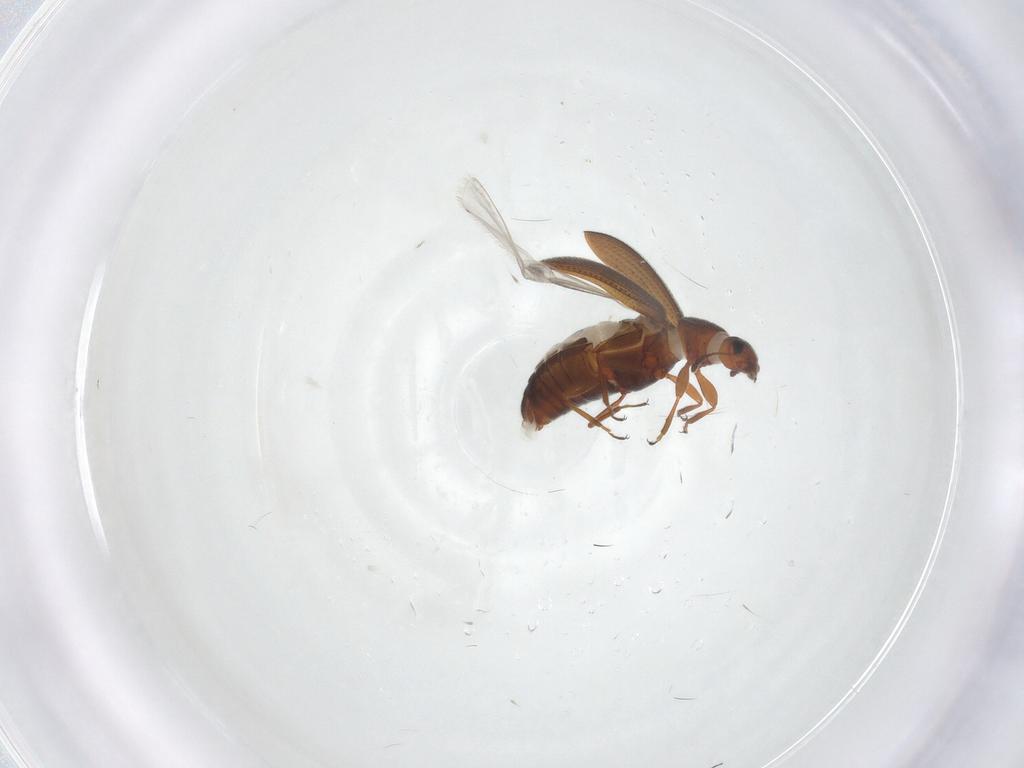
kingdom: Animalia
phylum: Arthropoda
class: Insecta
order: Coleoptera
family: Latridiidae
